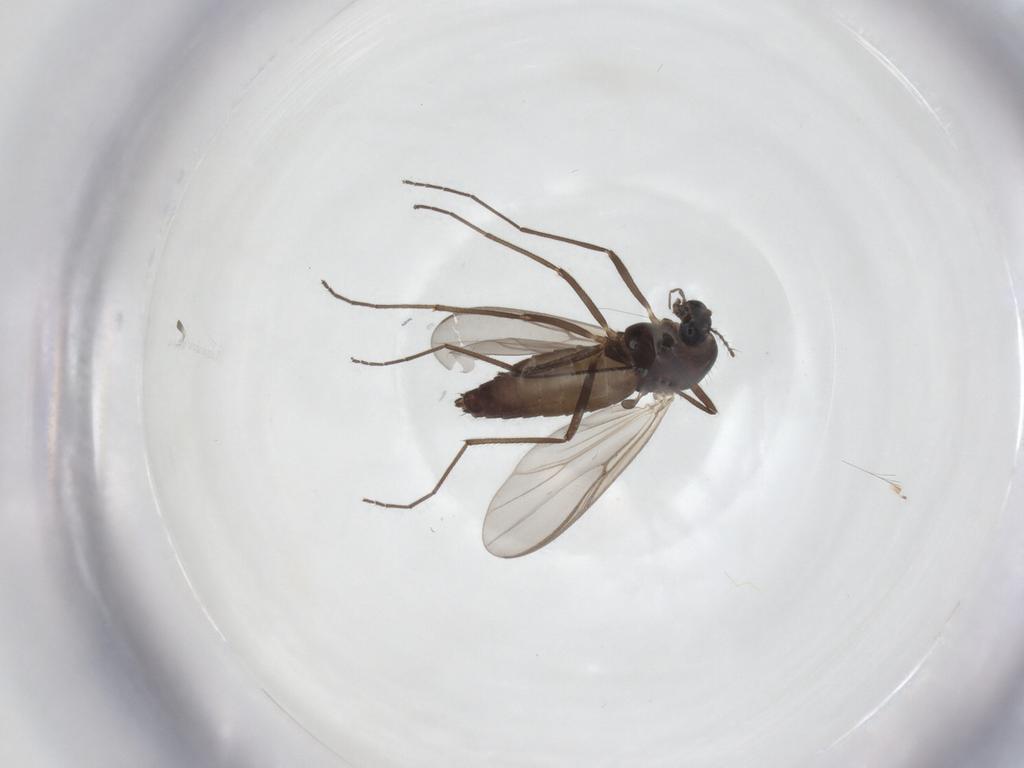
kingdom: Animalia
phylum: Arthropoda
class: Insecta
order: Diptera
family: Chironomidae
